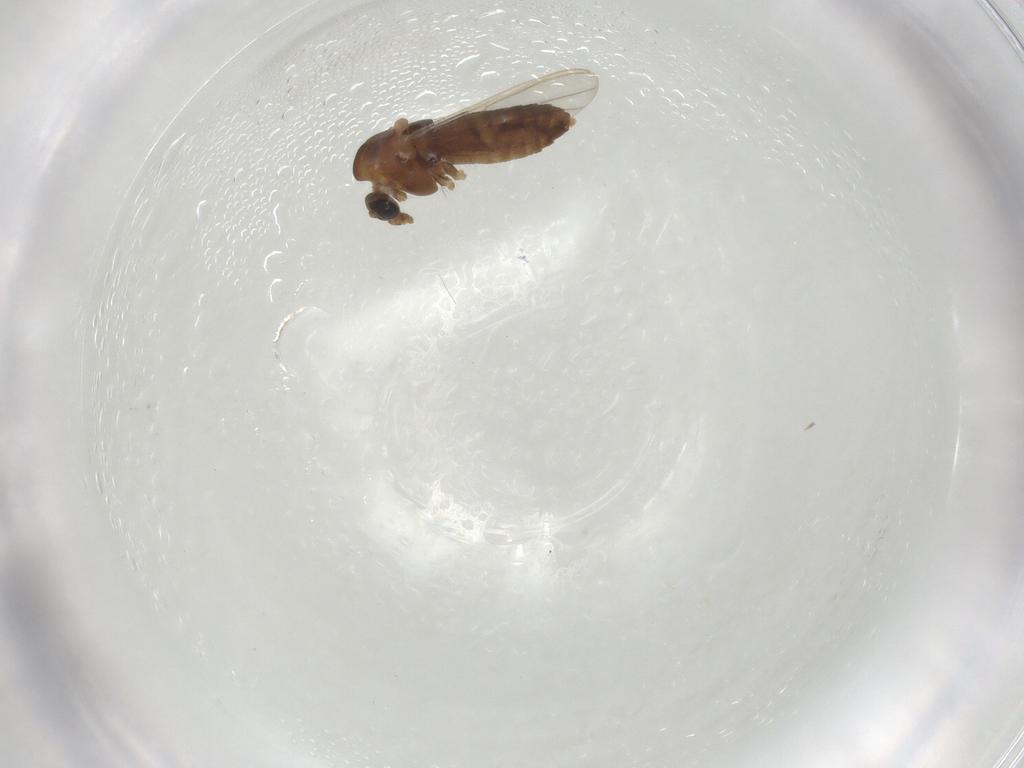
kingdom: Animalia
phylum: Arthropoda
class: Insecta
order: Diptera
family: Chironomidae
